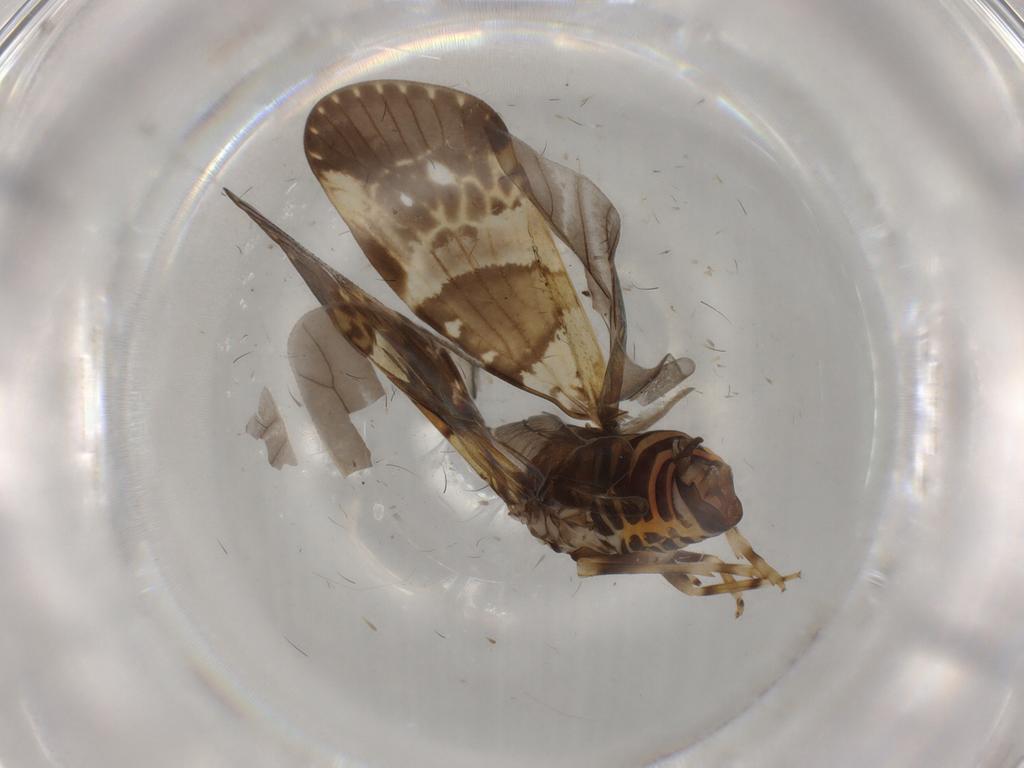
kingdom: Animalia
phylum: Arthropoda
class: Insecta
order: Hemiptera
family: Cixiidae
